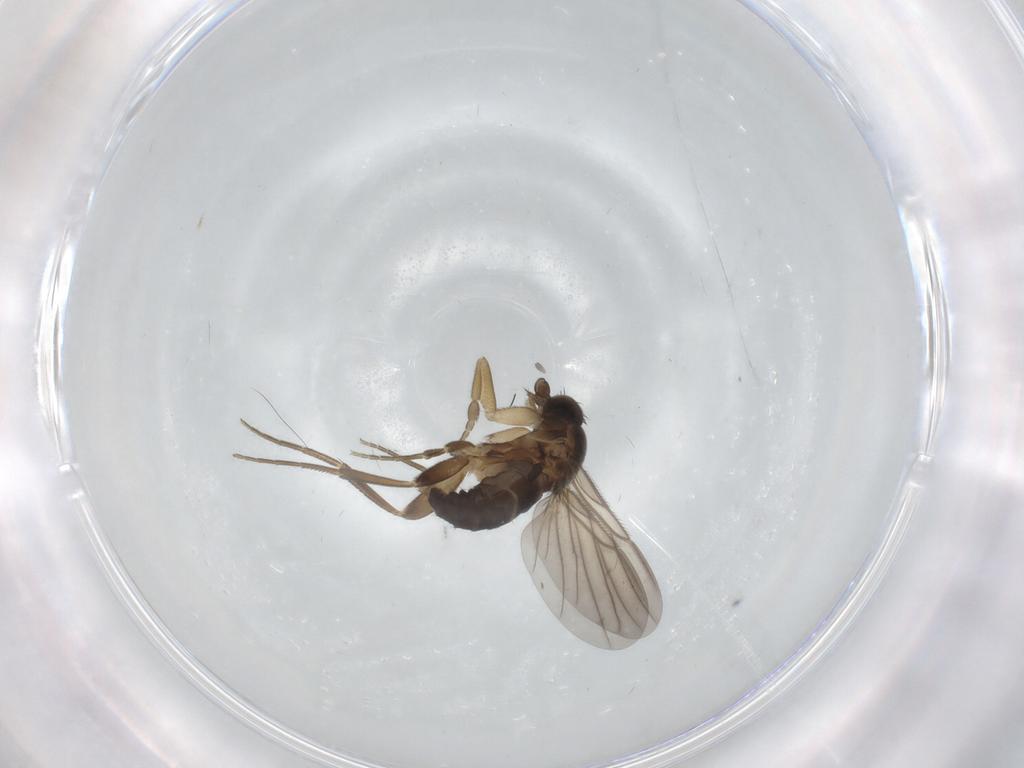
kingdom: Animalia
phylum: Arthropoda
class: Insecta
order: Diptera
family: Phoridae
